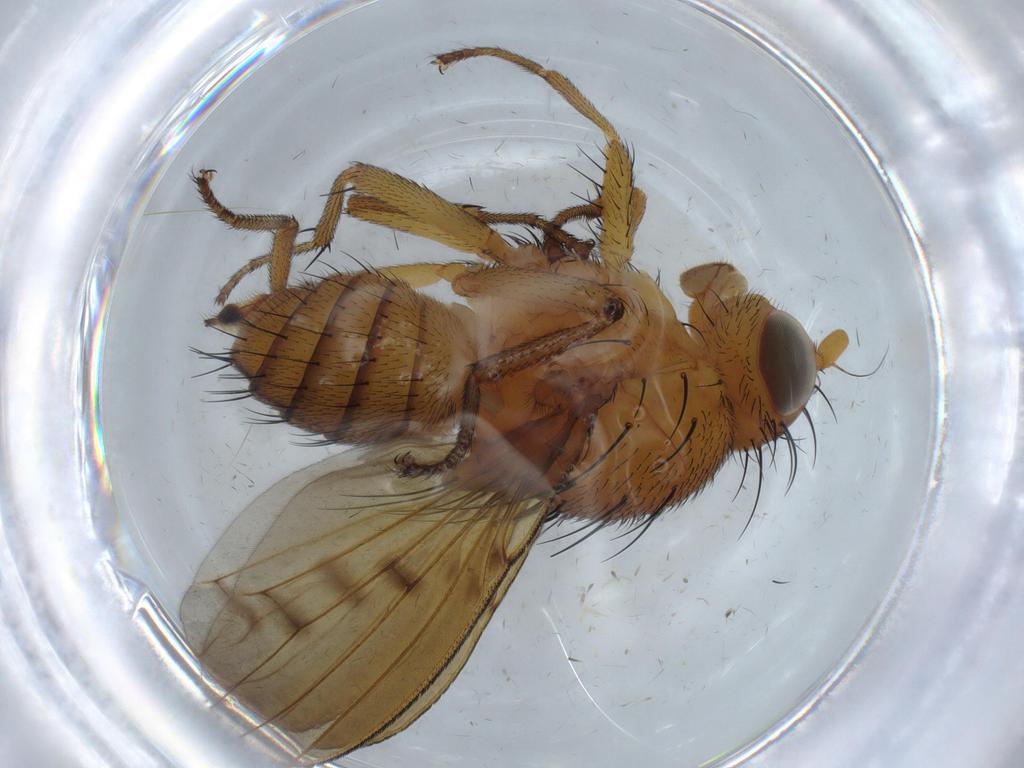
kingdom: Animalia
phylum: Arthropoda
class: Insecta
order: Diptera
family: Cecidomyiidae
